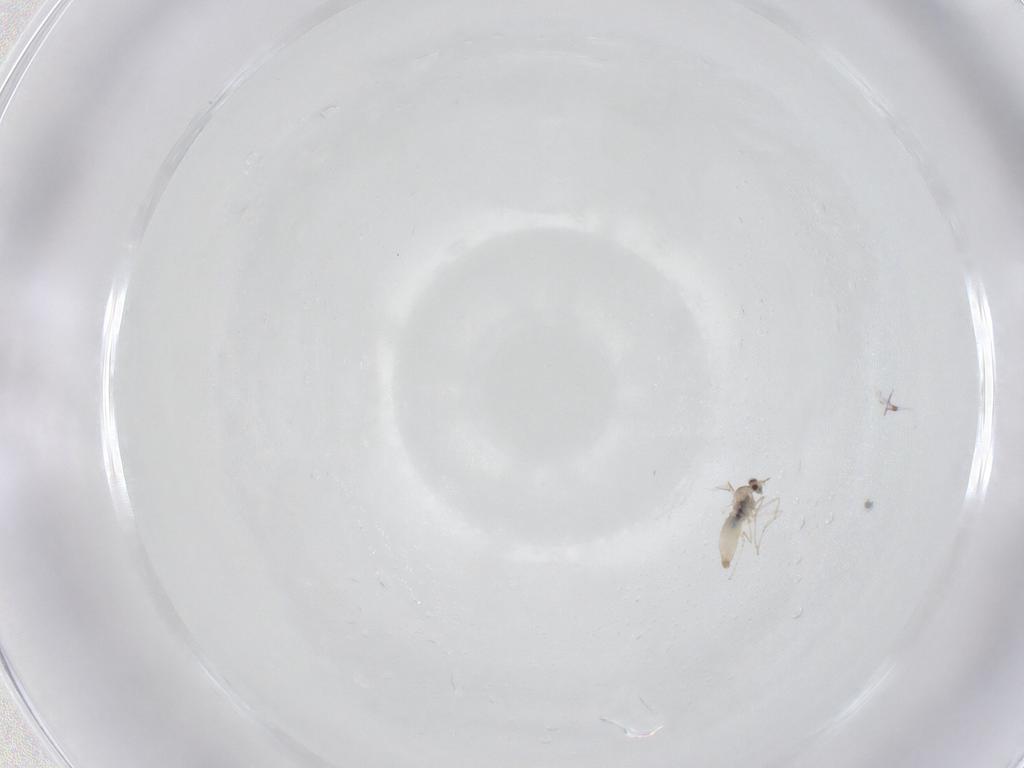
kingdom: Animalia
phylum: Arthropoda
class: Insecta
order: Diptera
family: Cecidomyiidae
